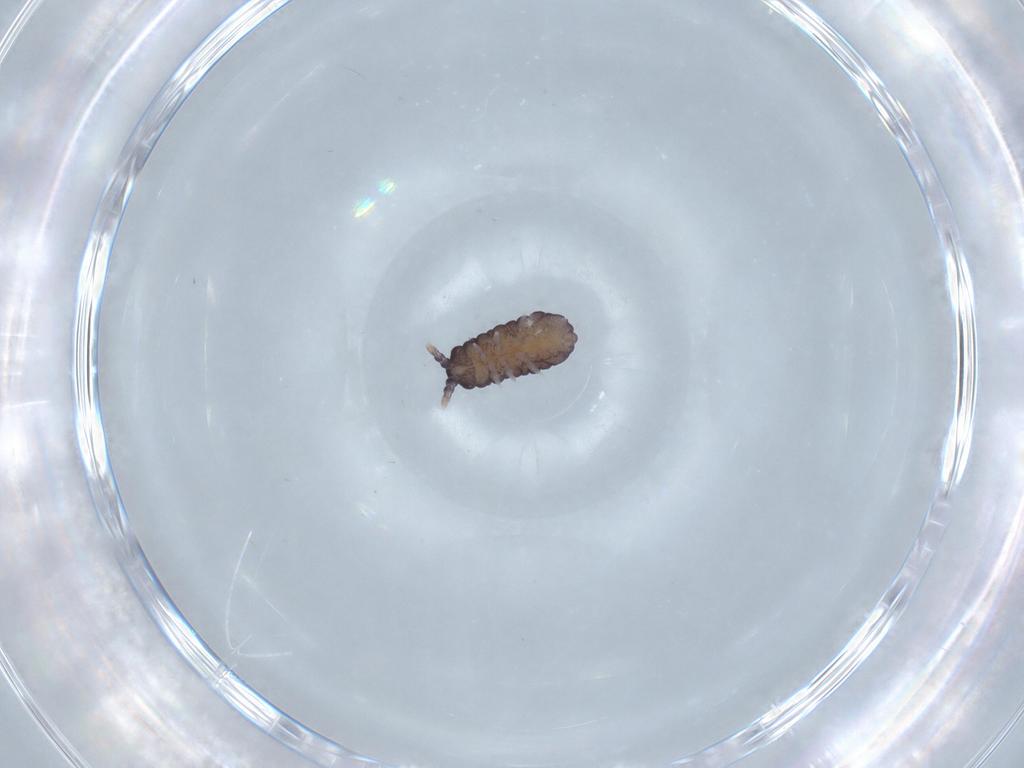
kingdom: Animalia
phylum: Arthropoda
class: Collembola
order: Poduromorpha
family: Neanuridae
